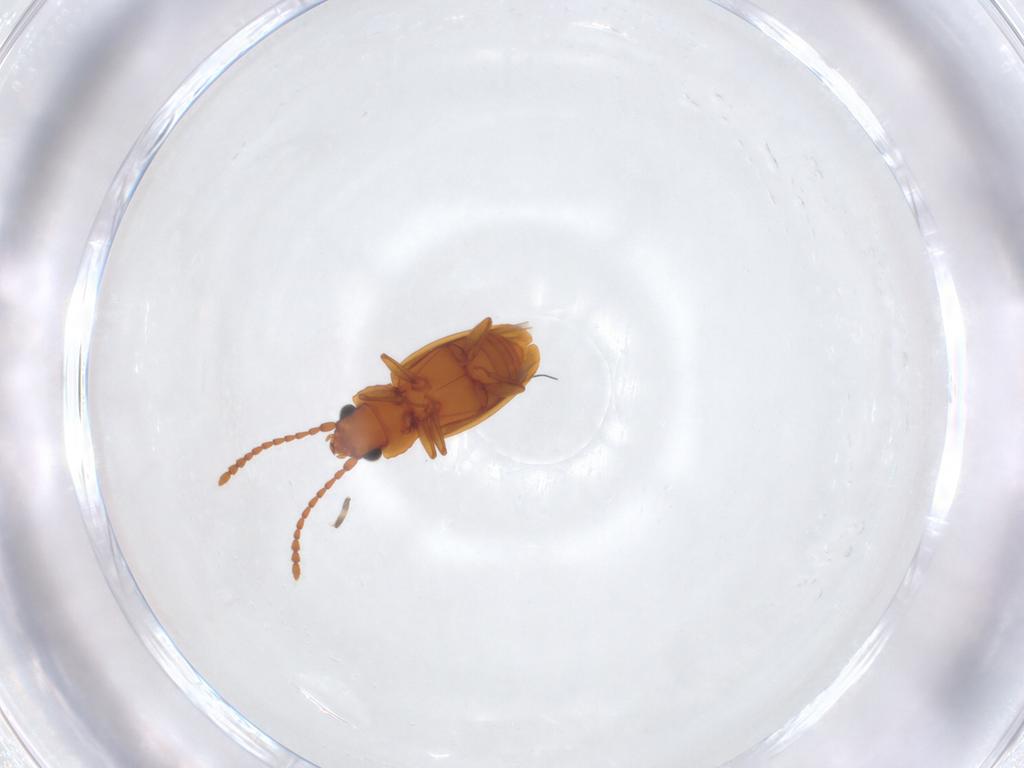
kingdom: Animalia
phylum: Arthropoda
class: Insecta
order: Coleoptera
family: Laemophloeidae
